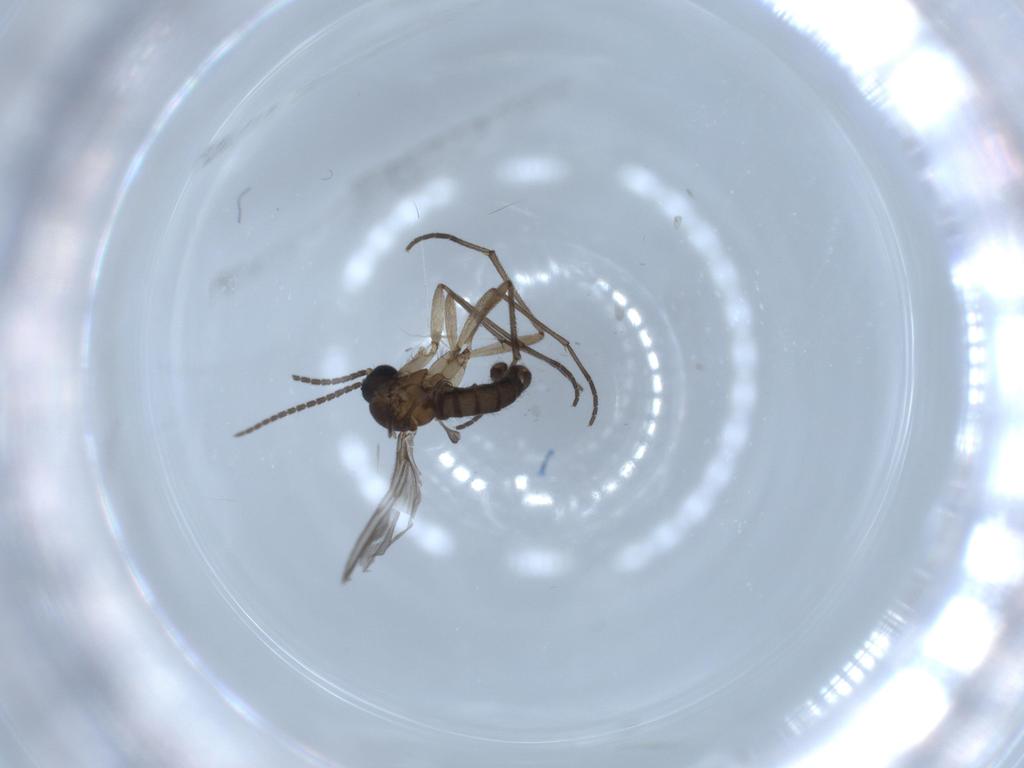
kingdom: Animalia
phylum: Arthropoda
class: Insecta
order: Diptera
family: Sciaridae
